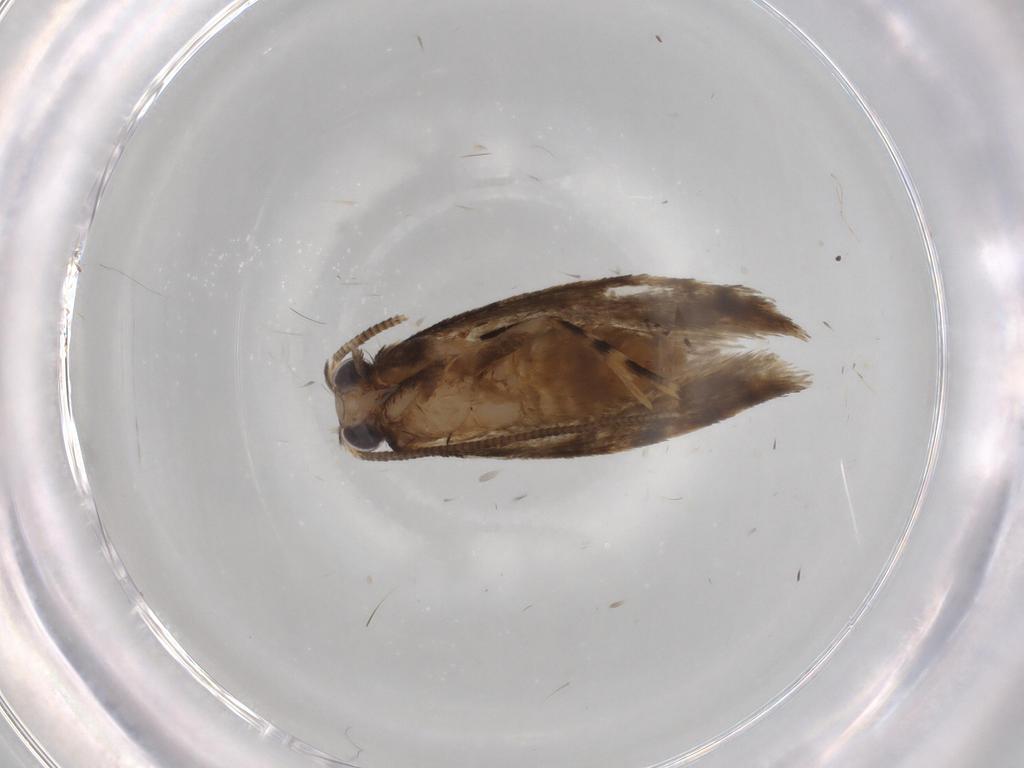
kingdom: Animalia
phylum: Arthropoda
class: Insecta
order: Lepidoptera
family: Tineidae
